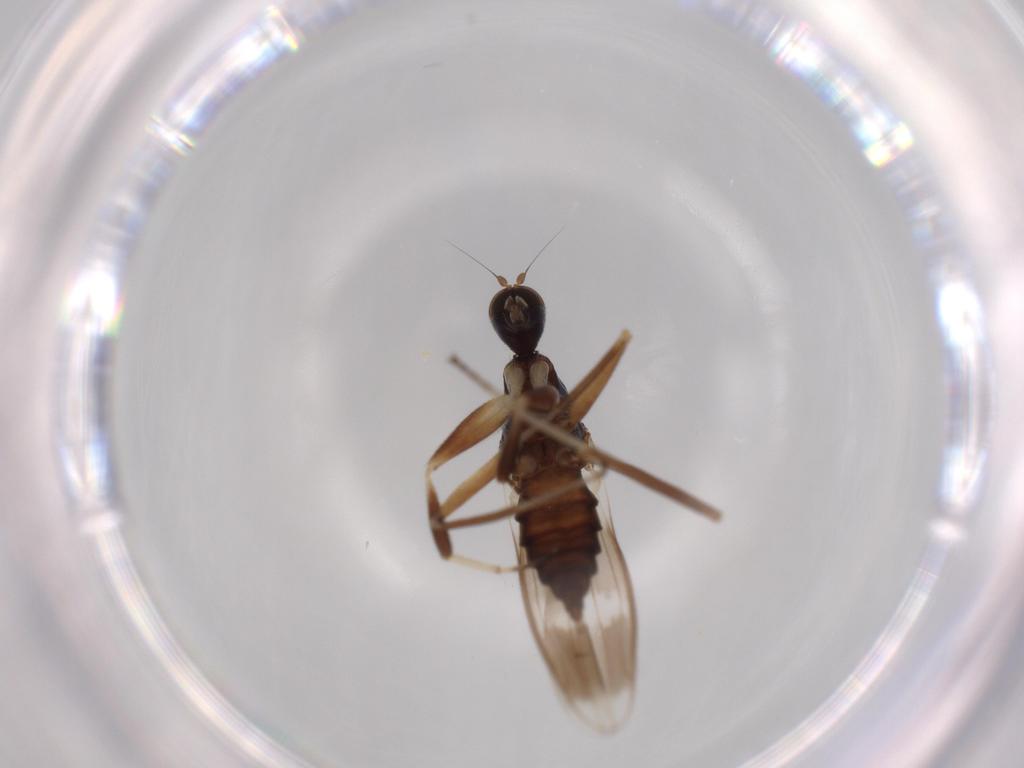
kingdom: Animalia
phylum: Arthropoda
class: Insecta
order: Diptera
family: Hybotidae
